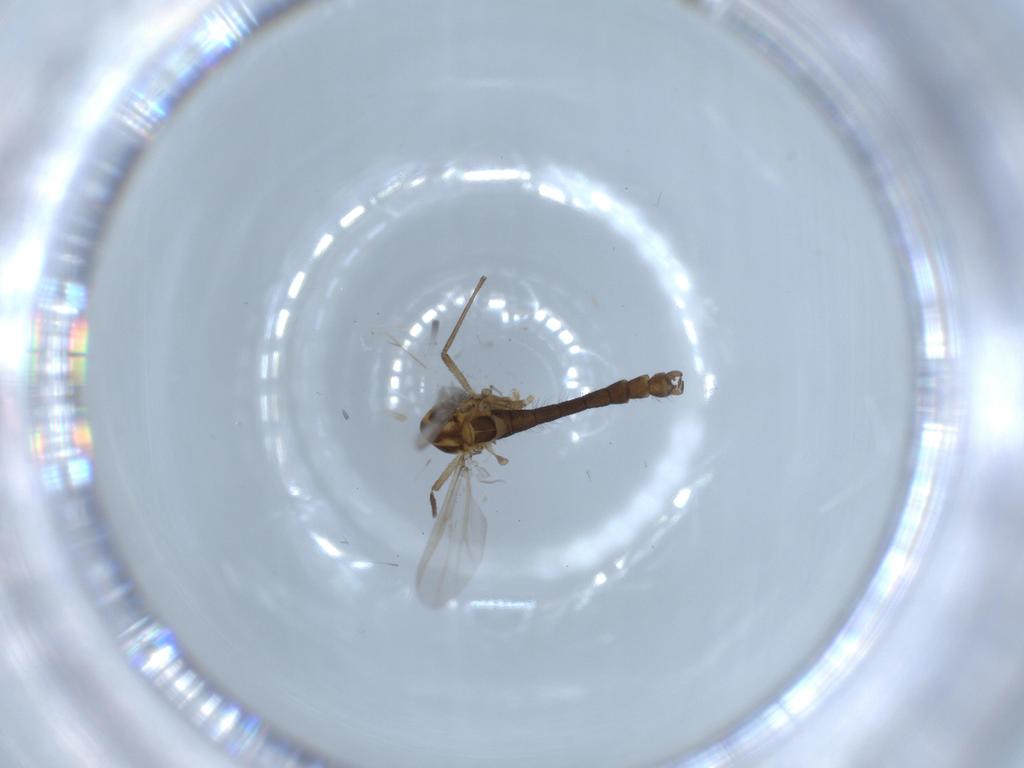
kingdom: Animalia
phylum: Arthropoda
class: Insecta
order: Diptera
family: Chironomidae
